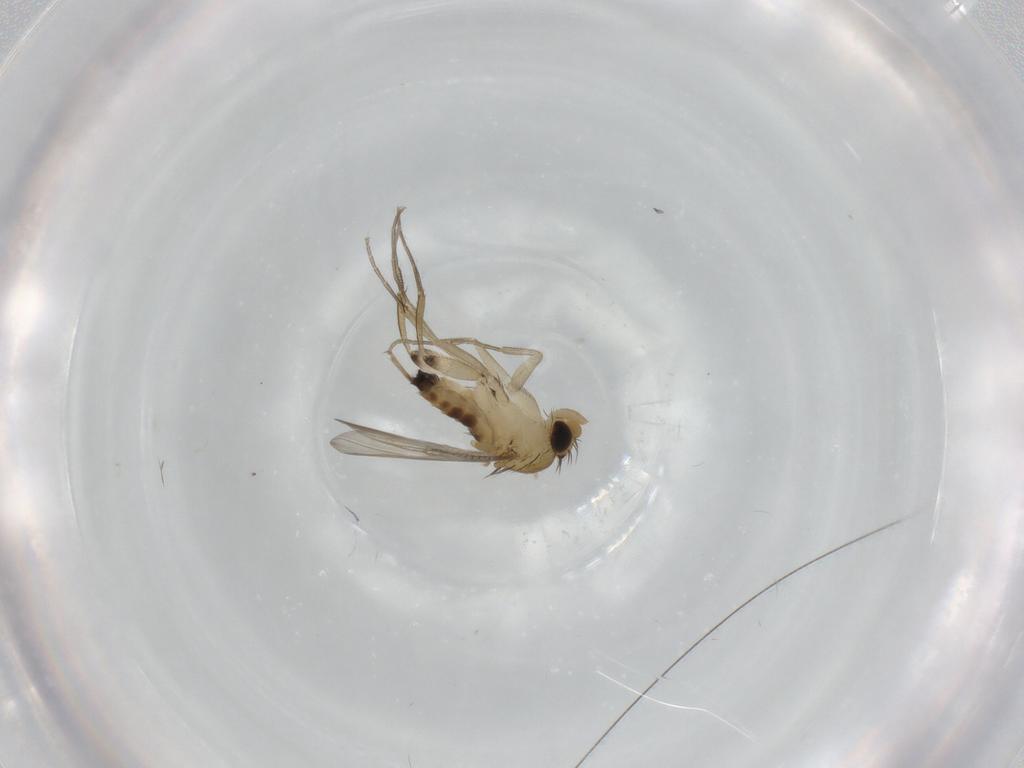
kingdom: Animalia
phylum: Arthropoda
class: Insecta
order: Diptera
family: Phoridae
